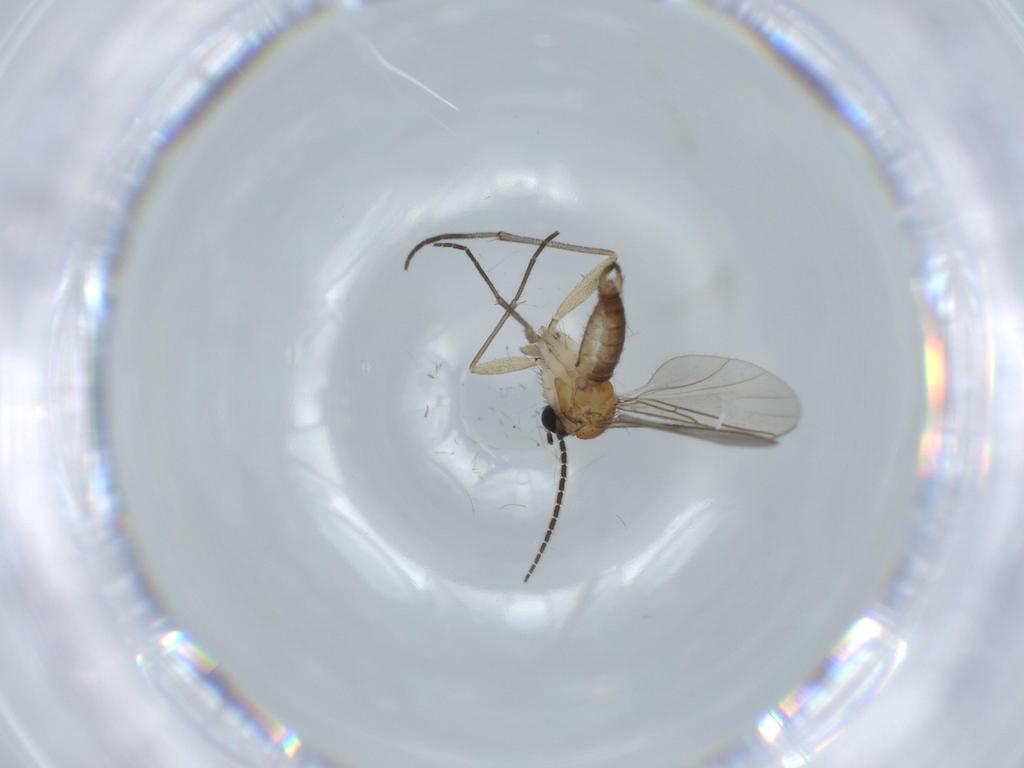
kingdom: Animalia
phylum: Arthropoda
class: Insecta
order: Diptera
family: Sciaridae
